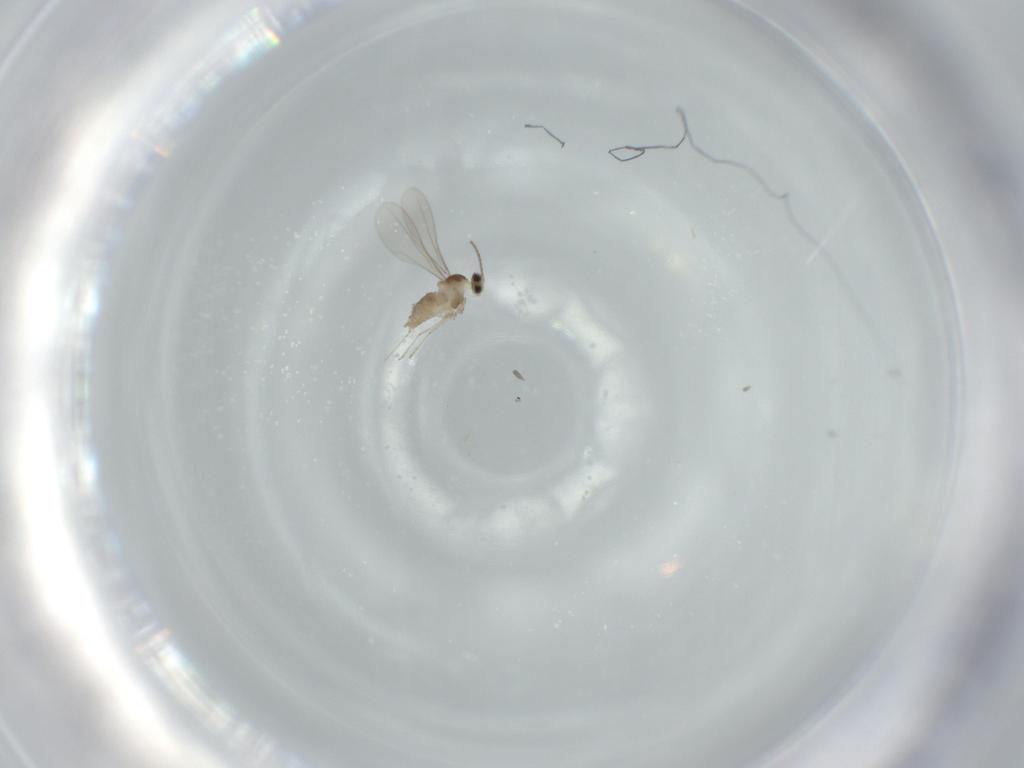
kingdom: Animalia
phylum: Arthropoda
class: Insecta
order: Diptera
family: Cecidomyiidae
